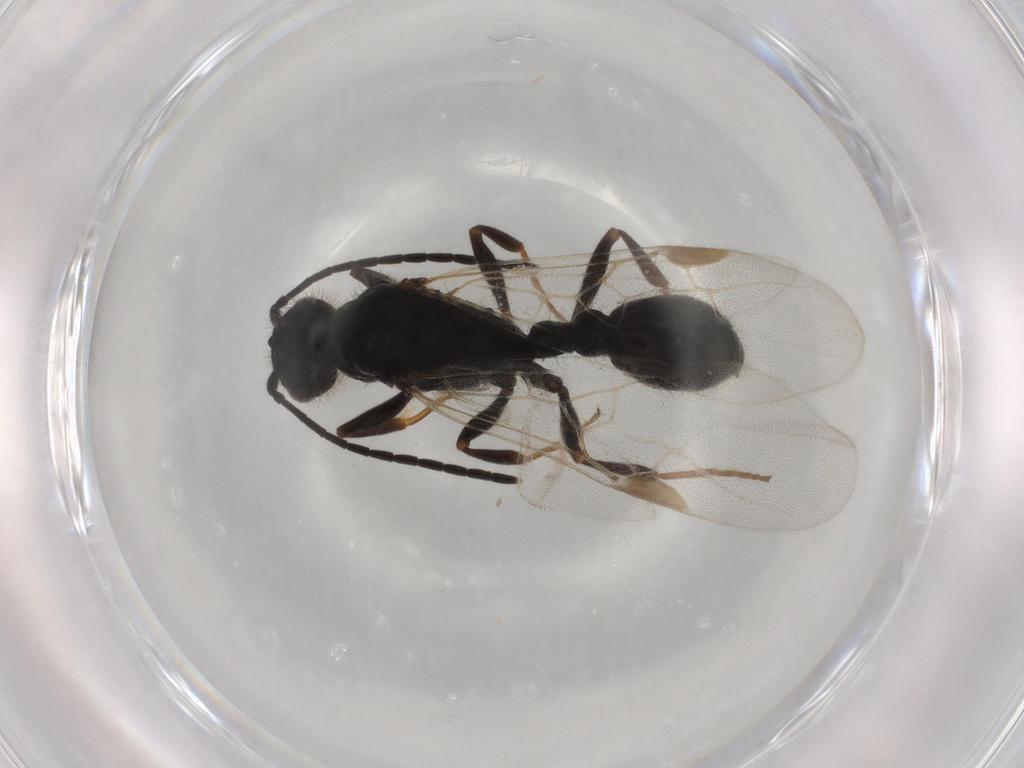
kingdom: Animalia
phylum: Arthropoda
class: Insecta
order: Hymenoptera
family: Formicidae
